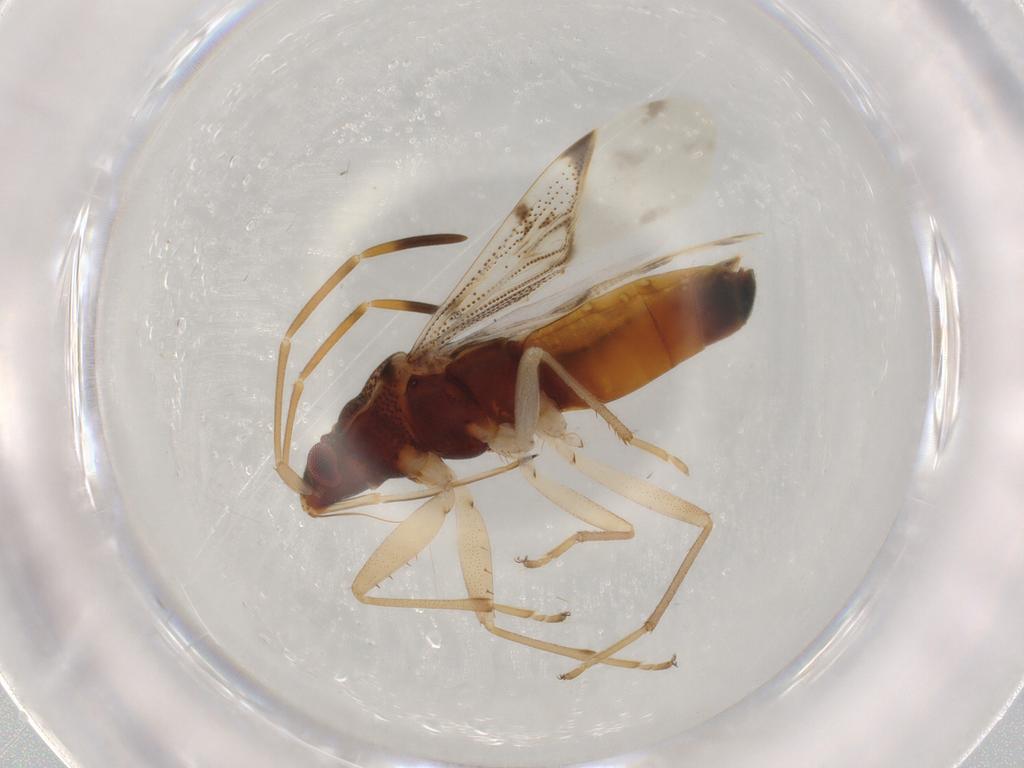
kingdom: Animalia
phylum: Arthropoda
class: Insecta
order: Hemiptera
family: Rhyparochromidae
